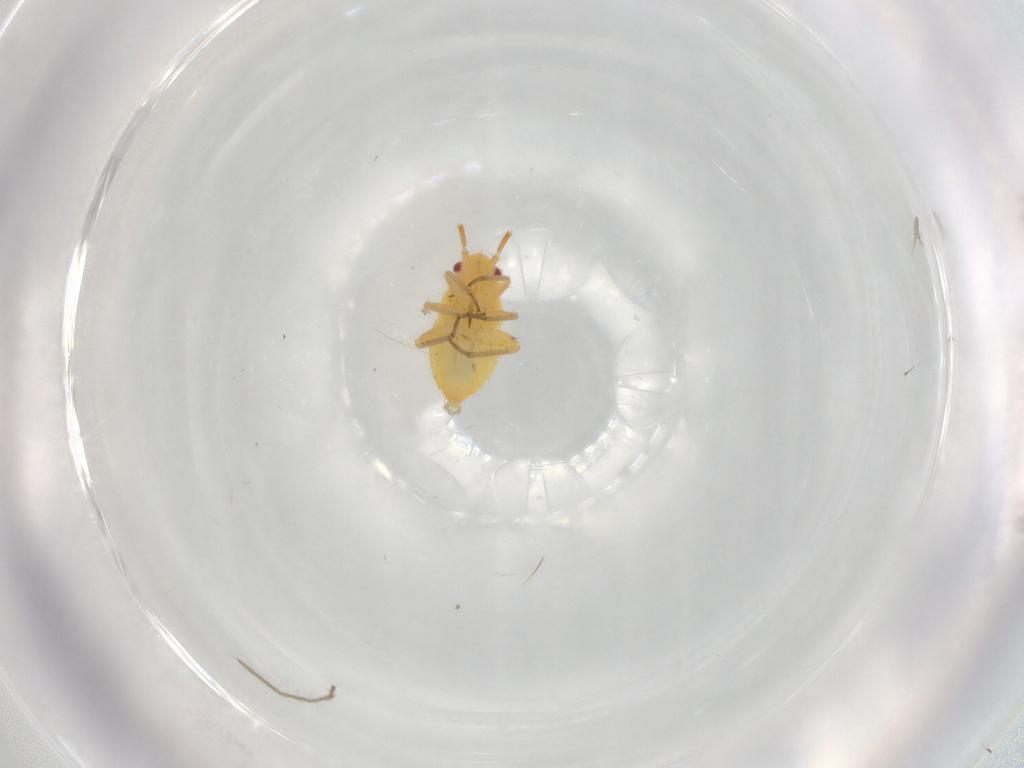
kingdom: Animalia
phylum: Arthropoda
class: Insecta
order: Hemiptera
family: Miridae
